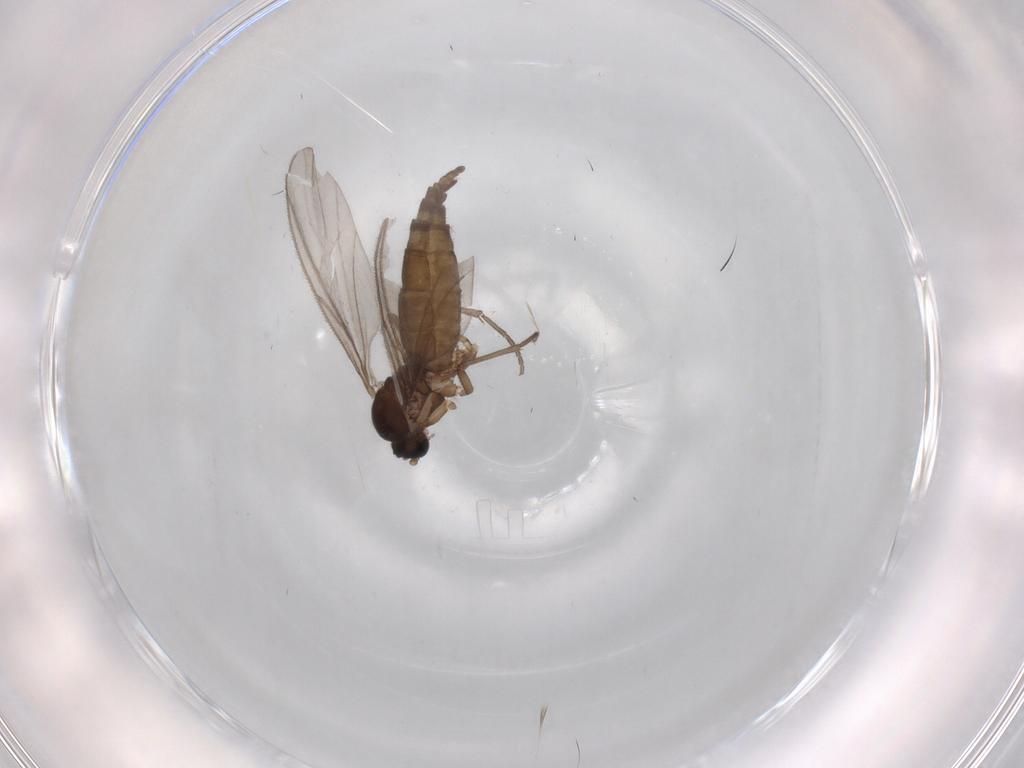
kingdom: Animalia
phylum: Arthropoda
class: Insecta
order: Diptera
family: Sciaridae
